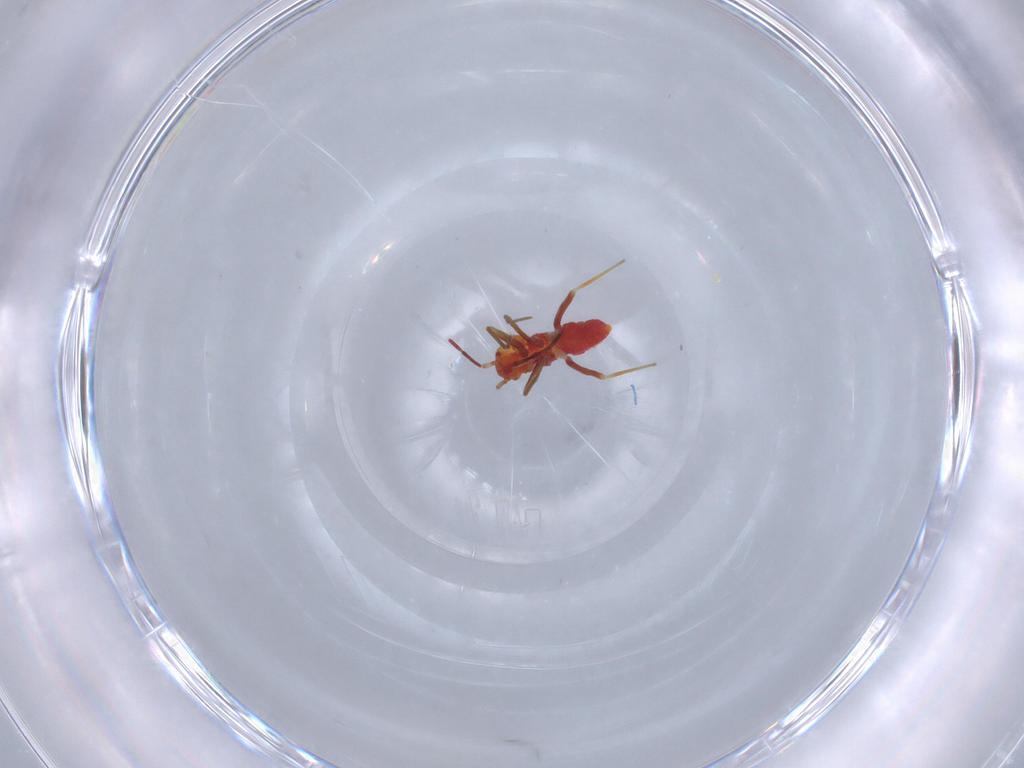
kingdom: Animalia
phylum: Arthropoda
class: Insecta
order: Hemiptera
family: Miridae
